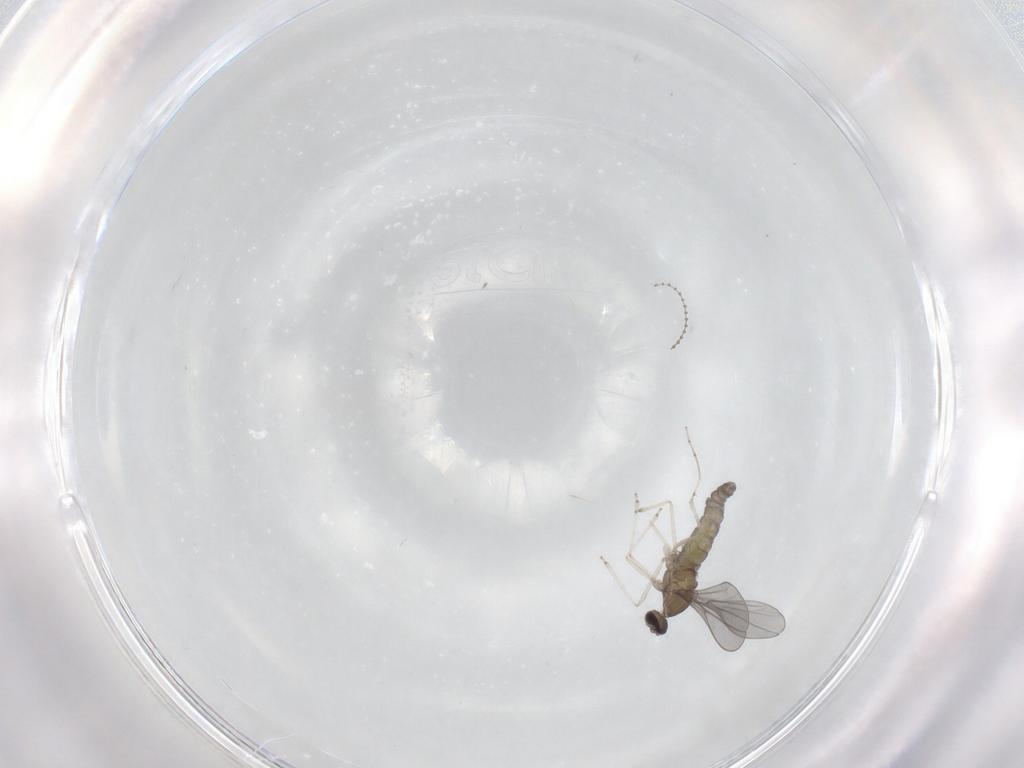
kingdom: Animalia
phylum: Arthropoda
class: Insecta
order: Diptera
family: Cecidomyiidae
